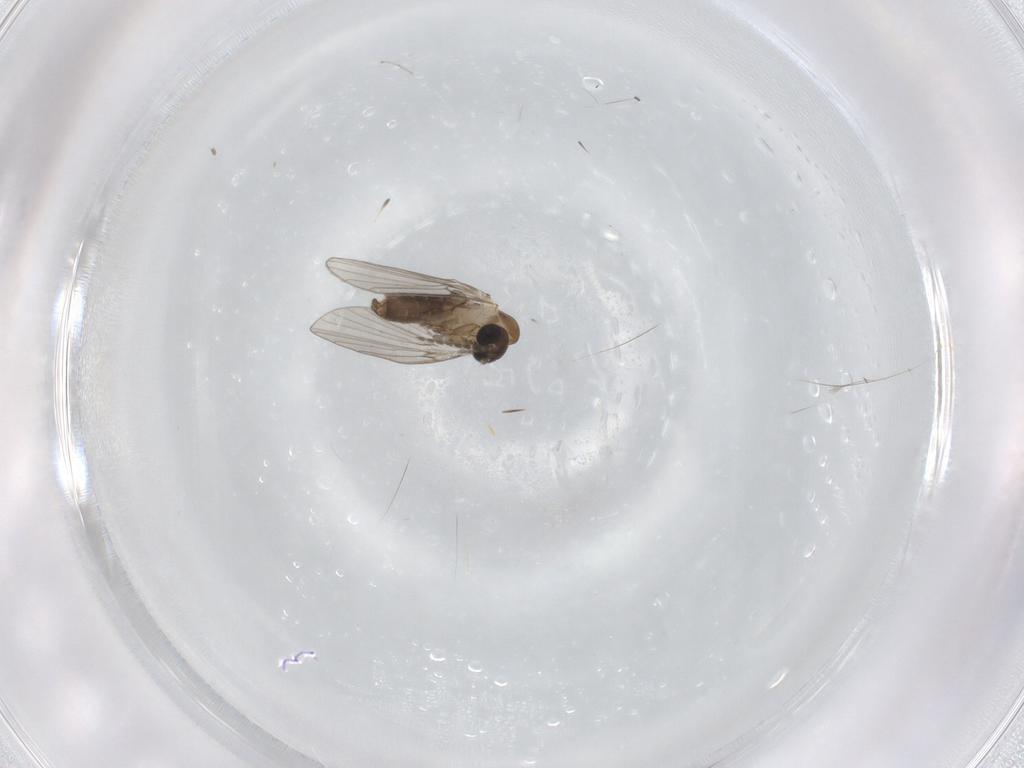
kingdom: Animalia
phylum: Arthropoda
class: Insecta
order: Diptera
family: Psychodidae
